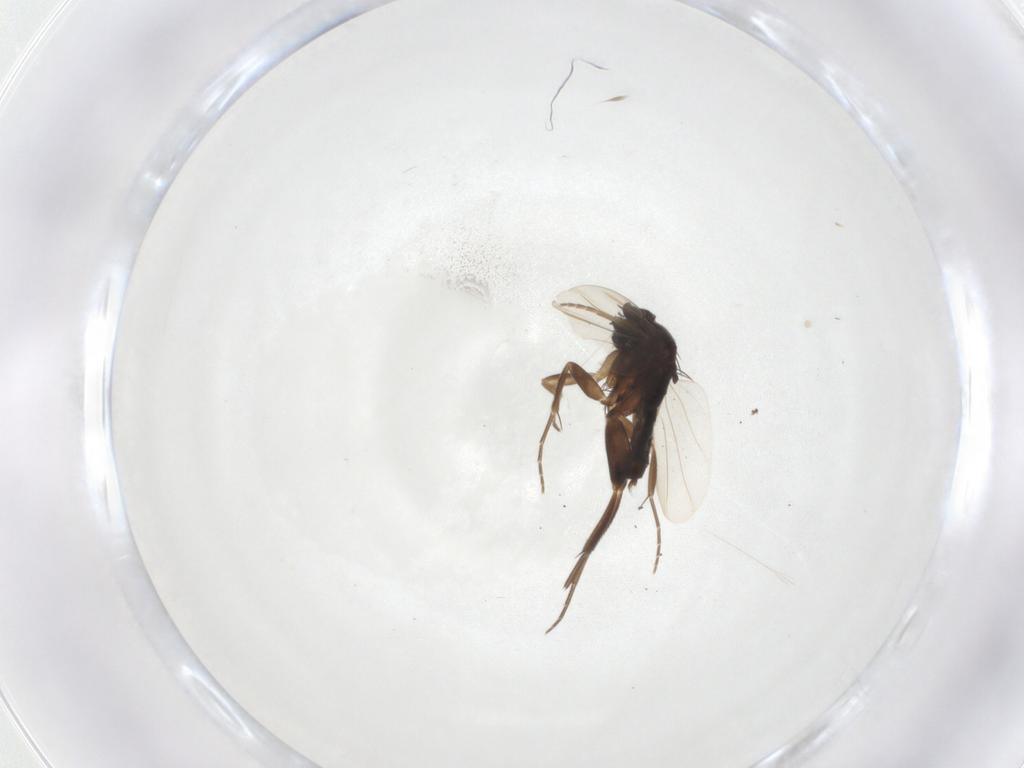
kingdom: Animalia
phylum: Arthropoda
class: Insecta
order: Diptera
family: Phoridae
